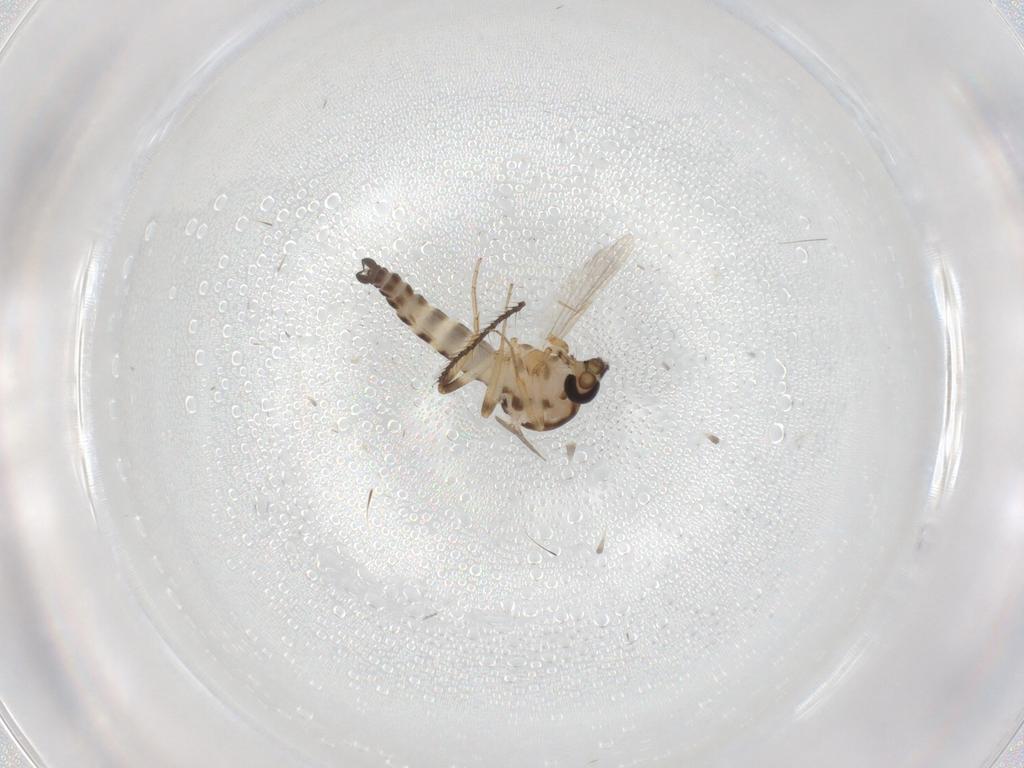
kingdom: Animalia
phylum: Arthropoda
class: Insecta
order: Diptera
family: Ceratopogonidae
